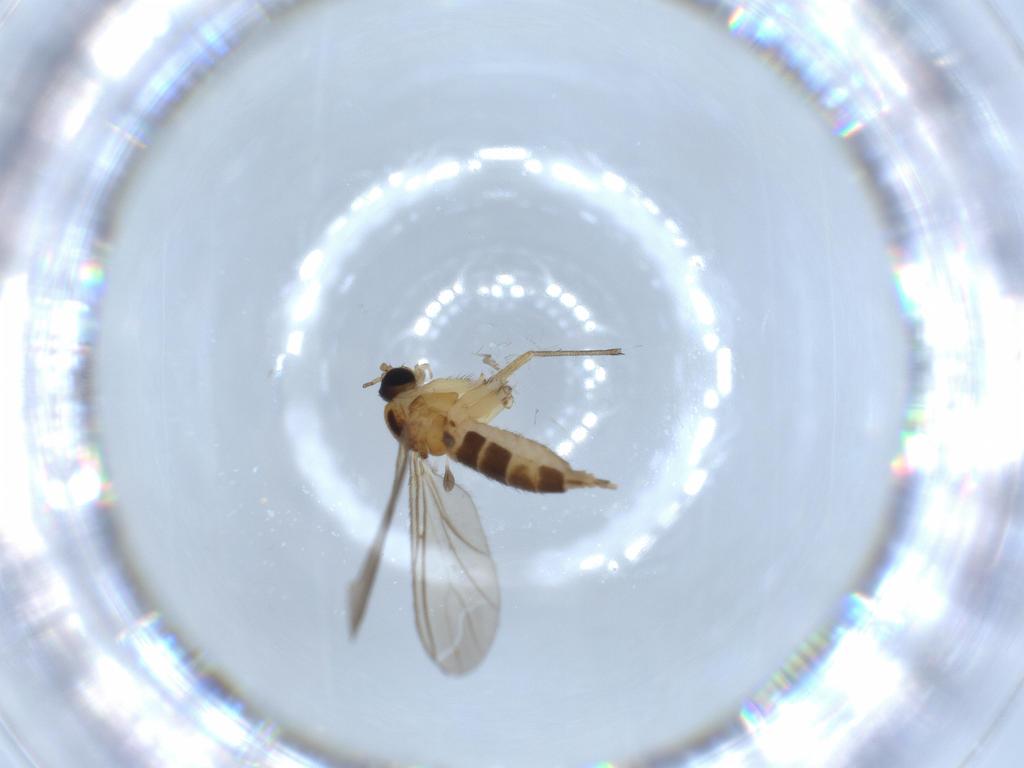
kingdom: Animalia
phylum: Arthropoda
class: Insecta
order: Diptera
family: Sciaridae
